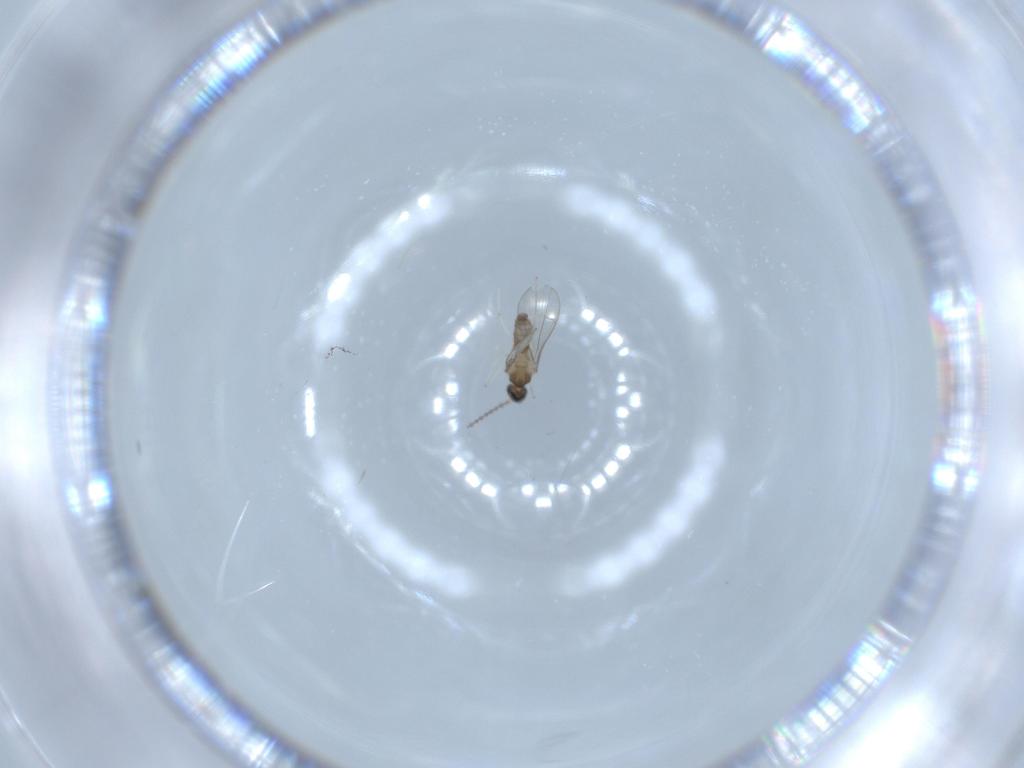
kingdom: Animalia
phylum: Arthropoda
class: Insecta
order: Diptera
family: Cecidomyiidae
